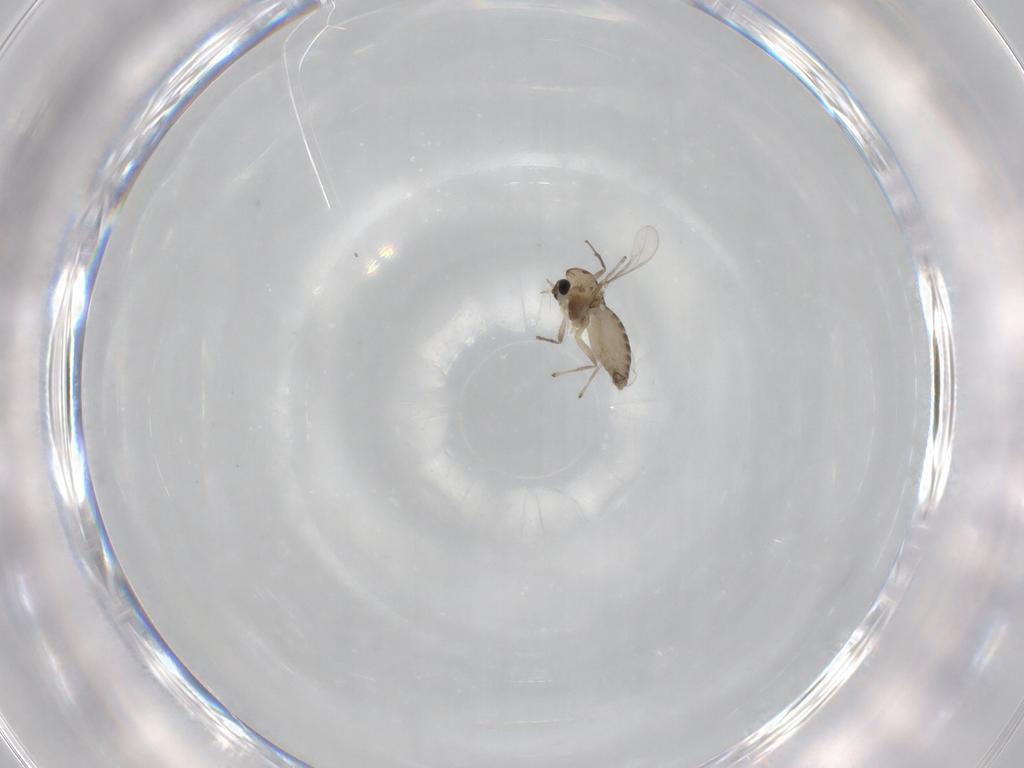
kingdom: Animalia
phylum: Arthropoda
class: Insecta
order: Diptera
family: Chironomidae
